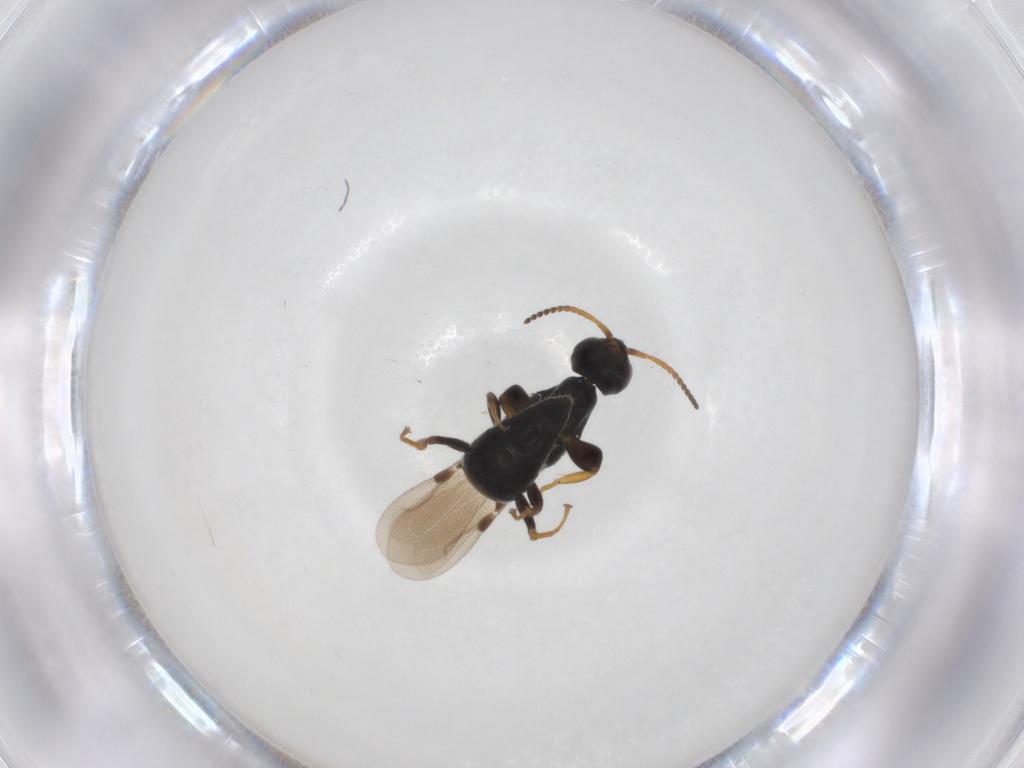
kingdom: Animalia
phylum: Arthropoda
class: Insecta
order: Hymenoptera
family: Bethylidae
